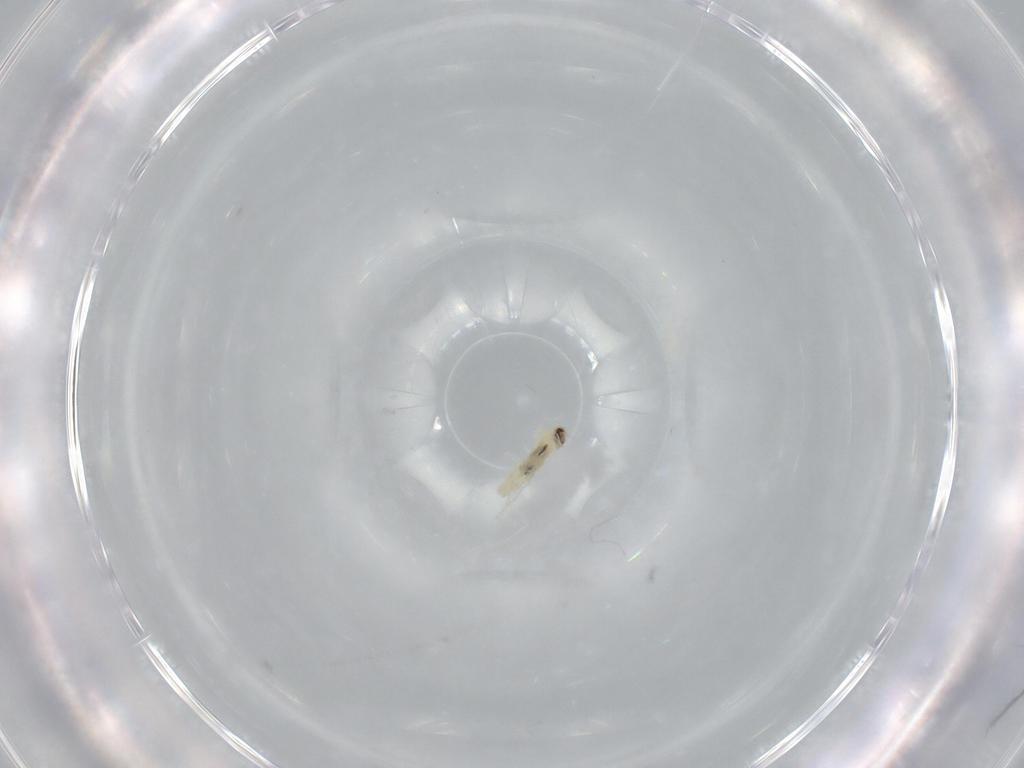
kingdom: Animalia
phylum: Arthropoda
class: Insecta
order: Diptera
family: Sciaridae
